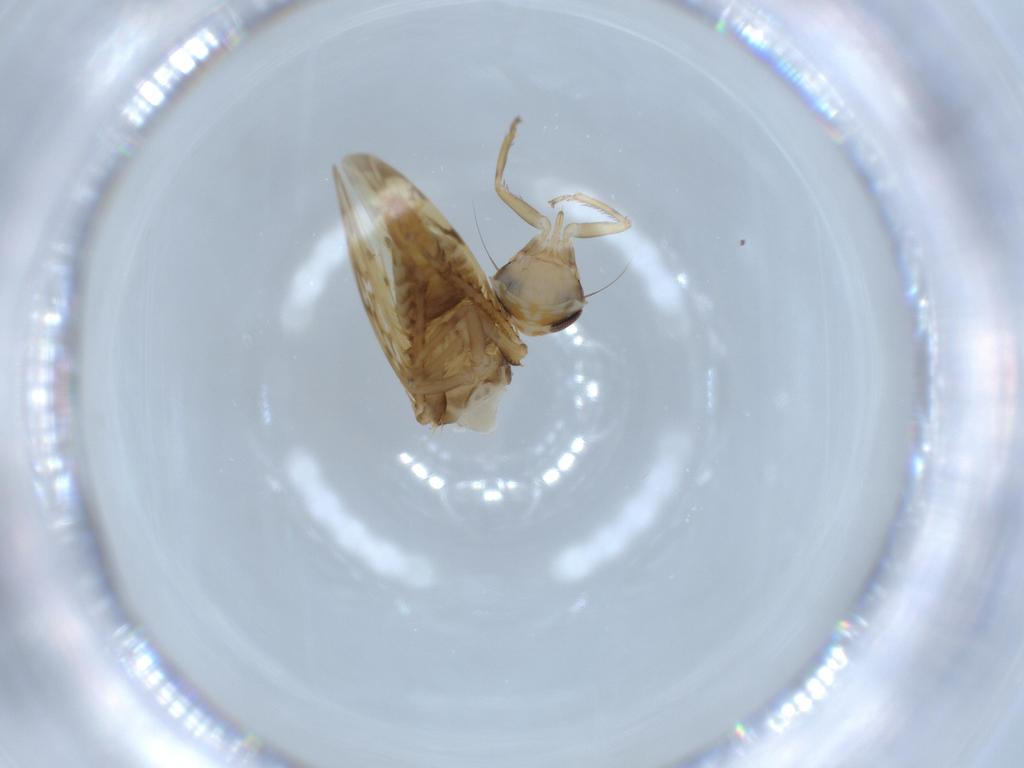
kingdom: Animalia
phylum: Arthropoda
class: Insecta
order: Hemiptera
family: Cicadellidae
